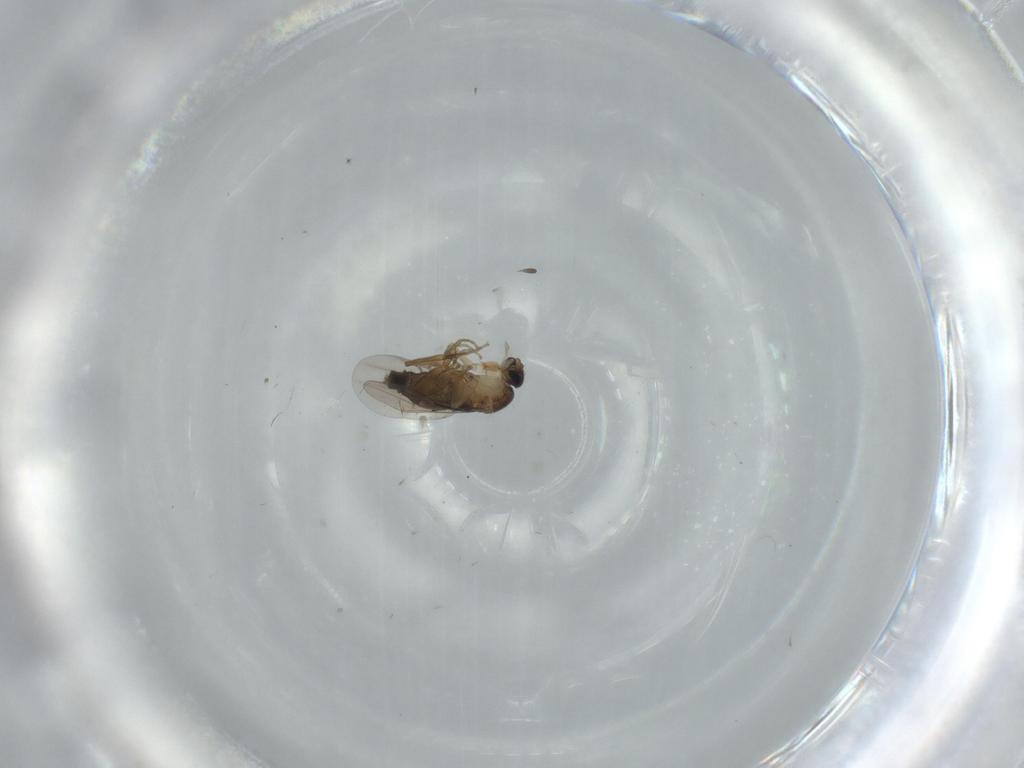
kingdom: Animalia
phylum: Arthropoda
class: Insecta
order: Diptera
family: Phoridae
